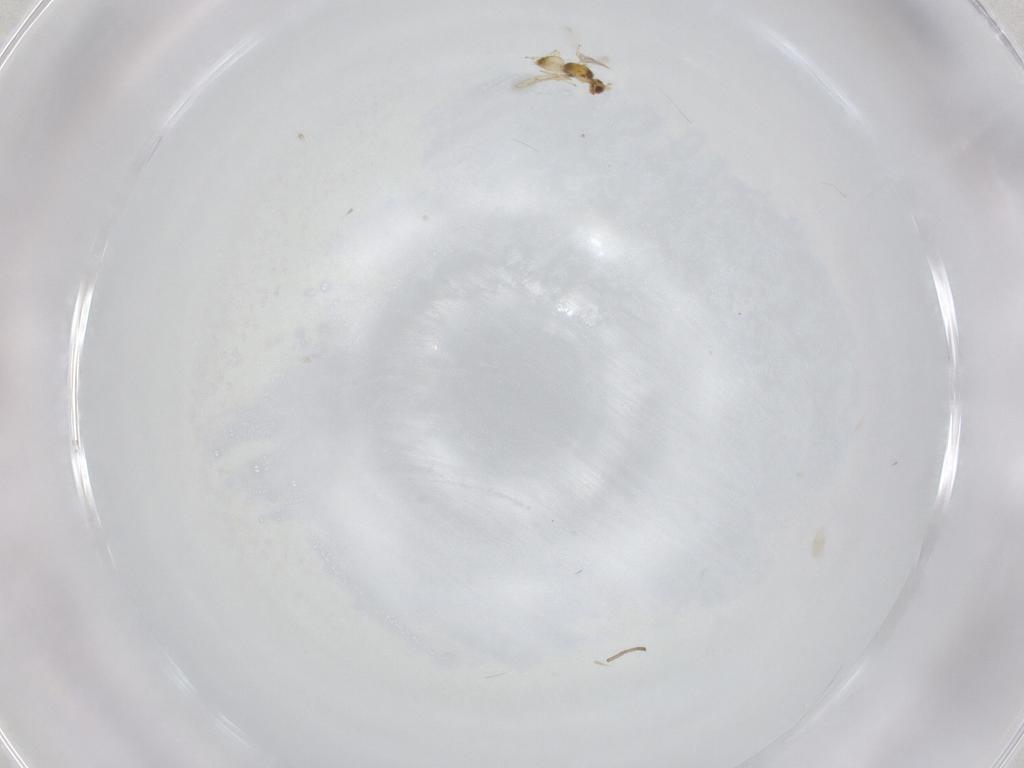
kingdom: Animalia
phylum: Arthropoda
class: Insecta
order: Hymenoptera
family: Mymaridae
